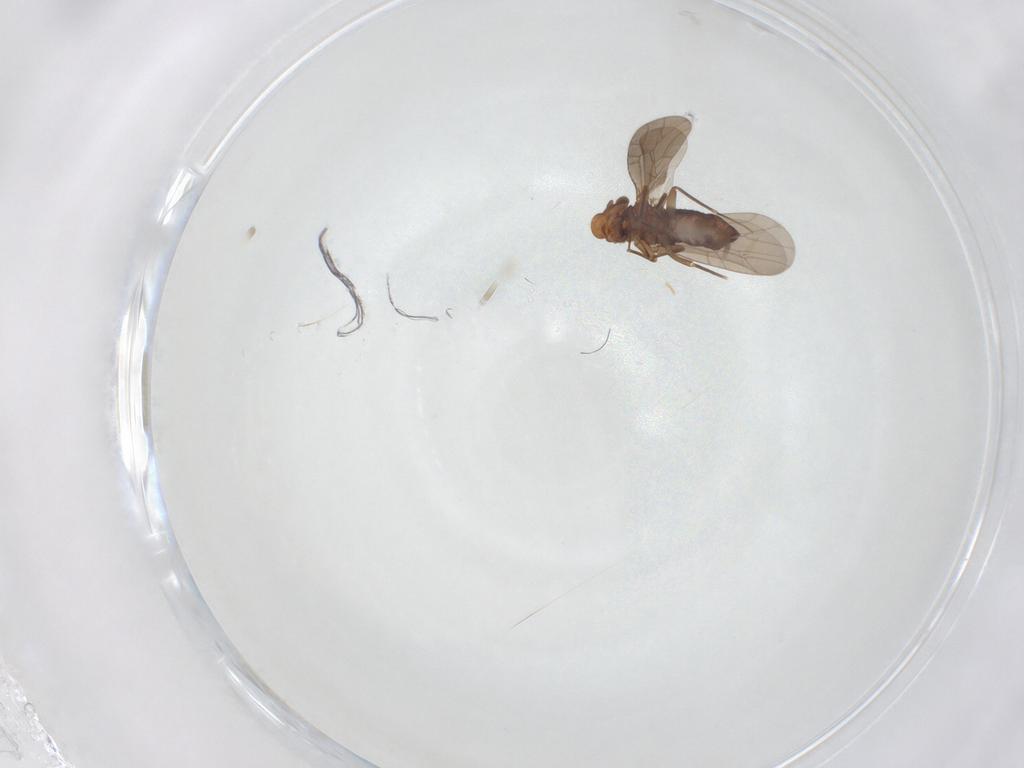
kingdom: Animalia
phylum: Arthropoda
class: Insecta
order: Psocodea
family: Lepidopsocidae
